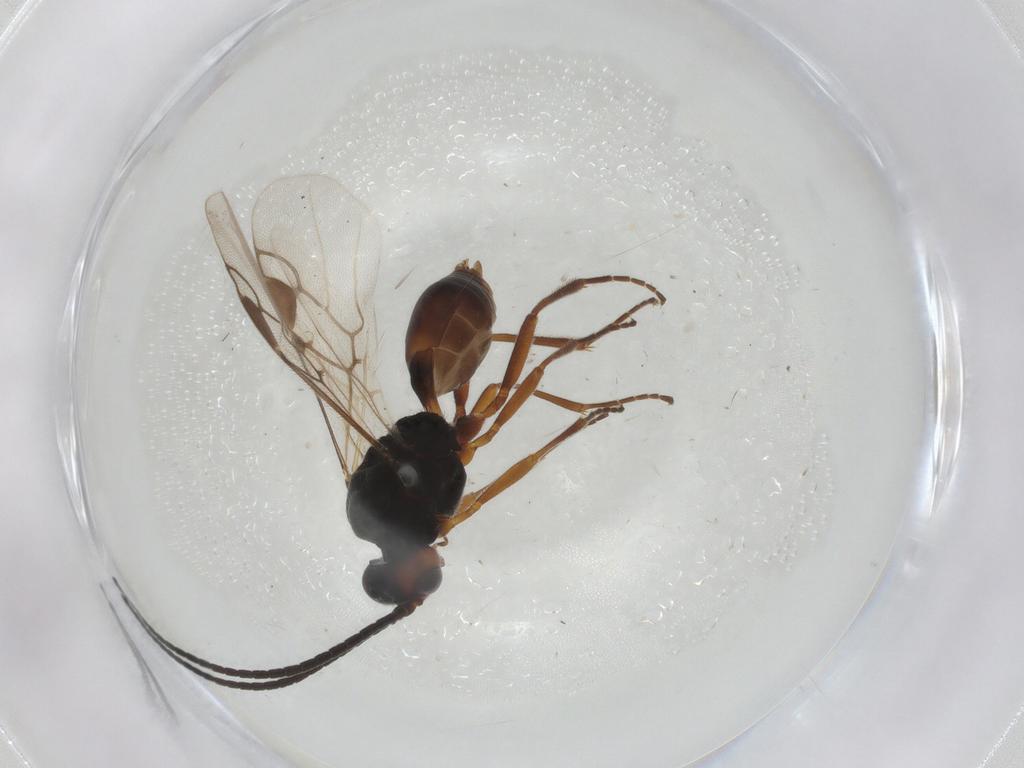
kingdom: Animalia
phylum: Arthropoda
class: Insecta
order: Hymenoptera
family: Braconidae
